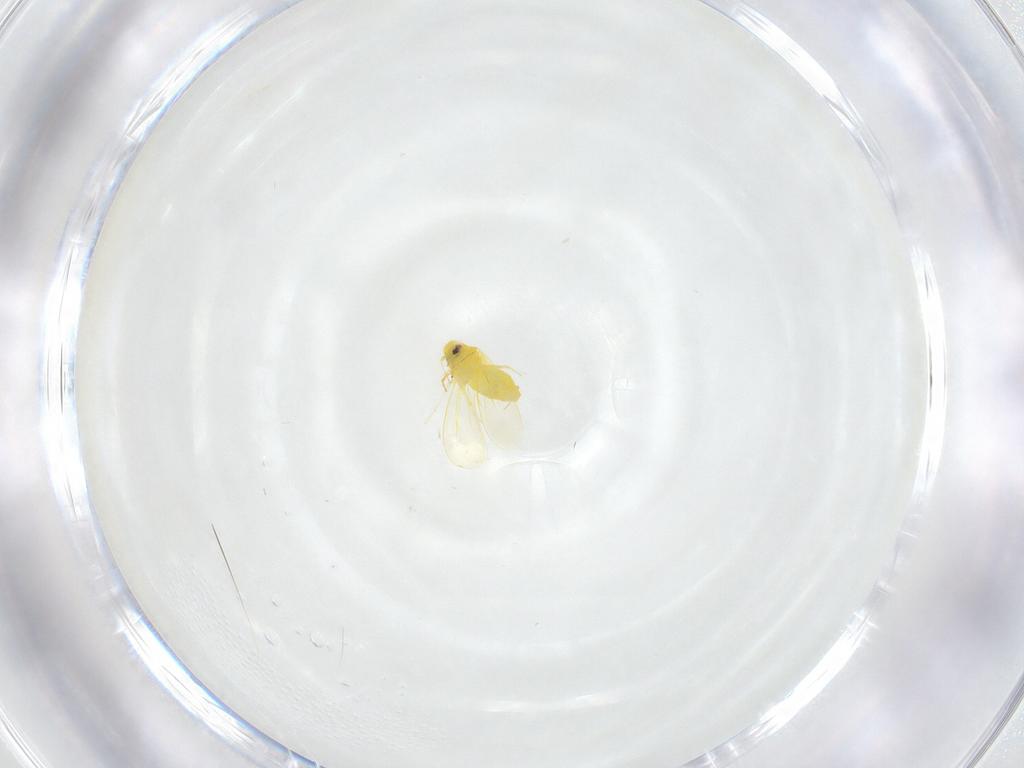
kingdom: Animalia
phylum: Arthropoda
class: Insecta
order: Hemiptera
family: Aleyrodidae
